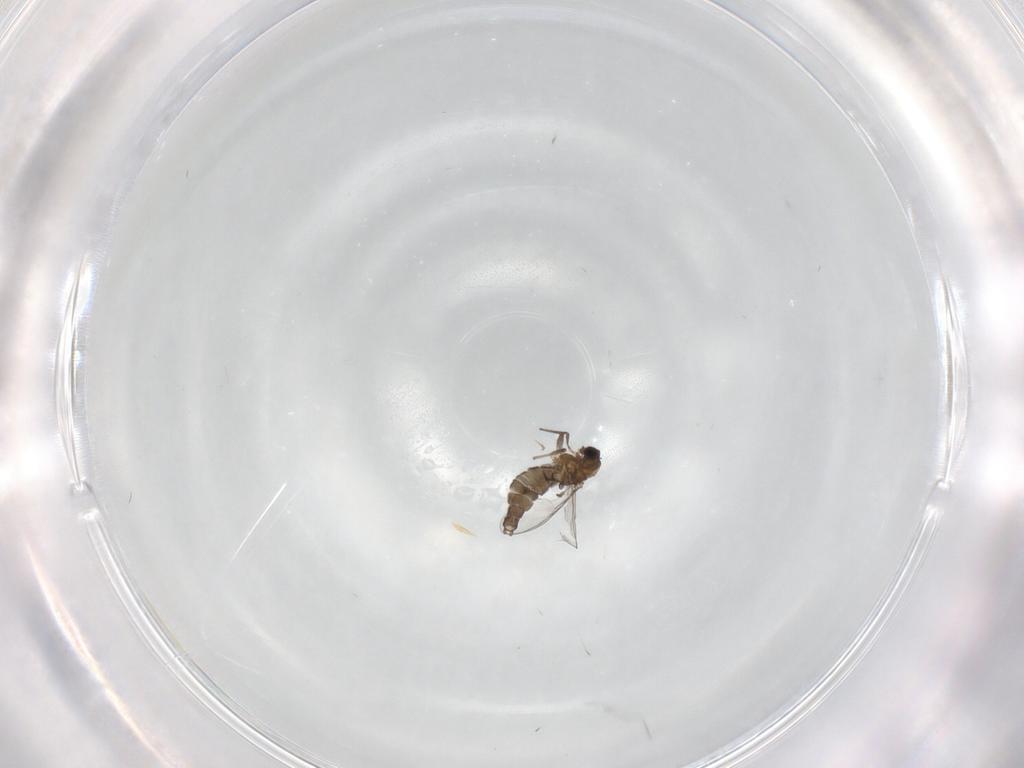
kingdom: Animalia
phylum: Arthropoda
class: Insecta
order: Diptera
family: Chironomidae
